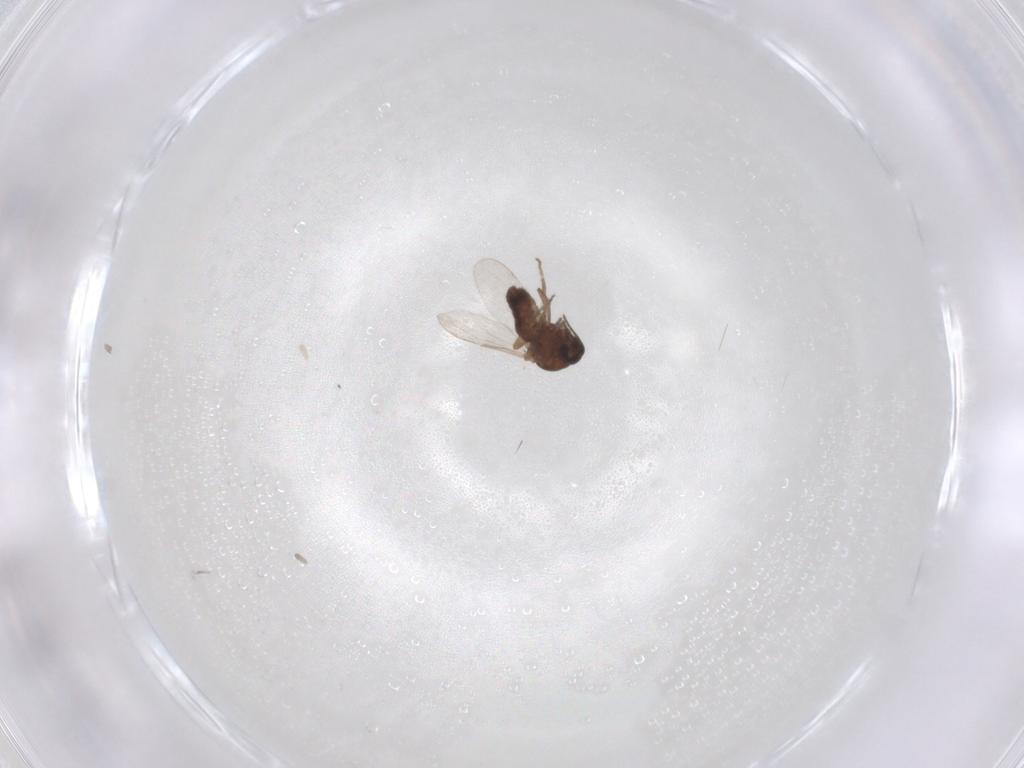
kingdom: Animalia
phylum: Arthropoda
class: Insecta
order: Diptera
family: Ceratopogonidae
